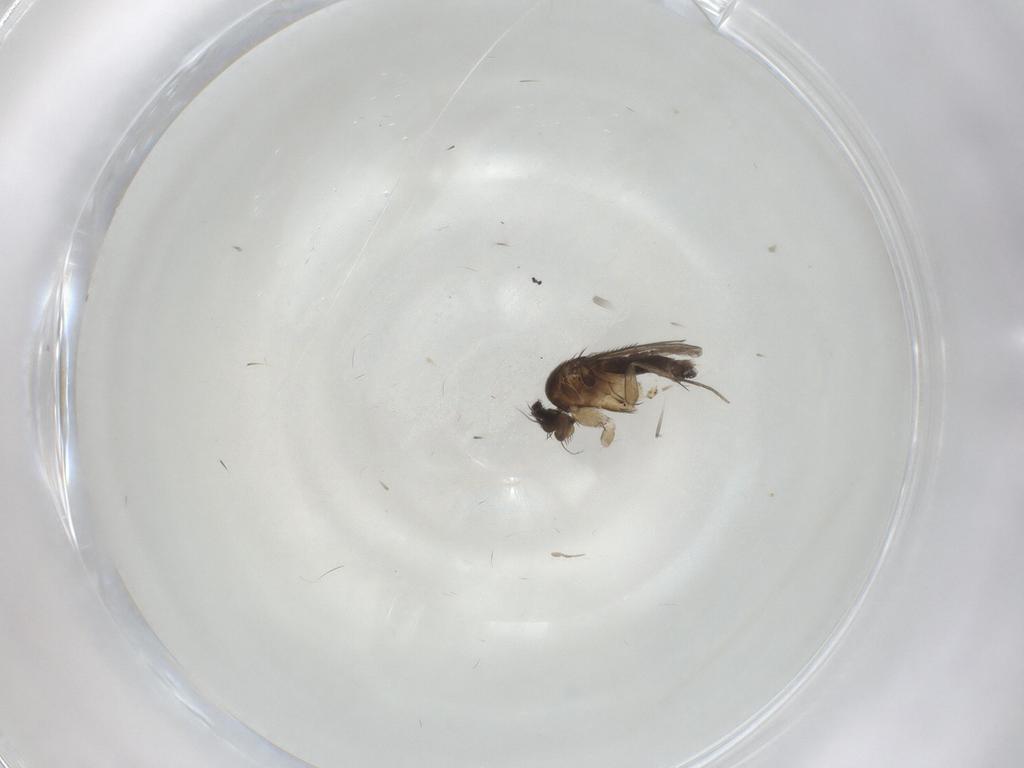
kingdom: Animalia
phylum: Arthropoda
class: Insecta
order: Diptera
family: Phoridae
